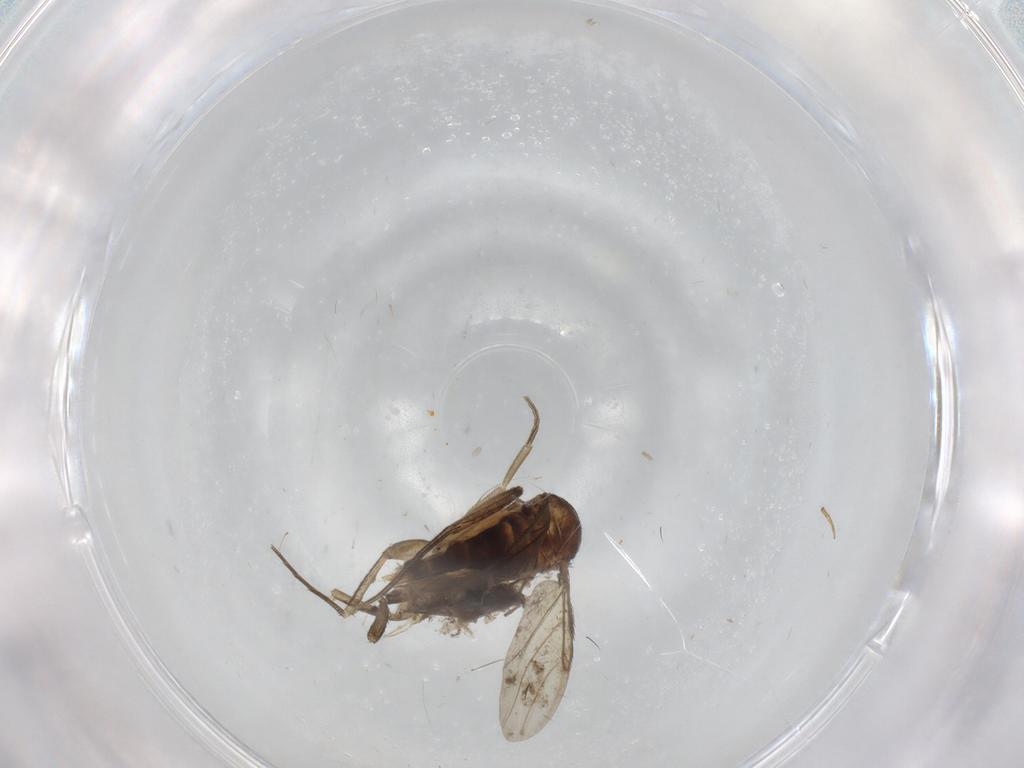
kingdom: Animalia
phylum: Arthropoda
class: Insecta
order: Diptera
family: Chironomidae
